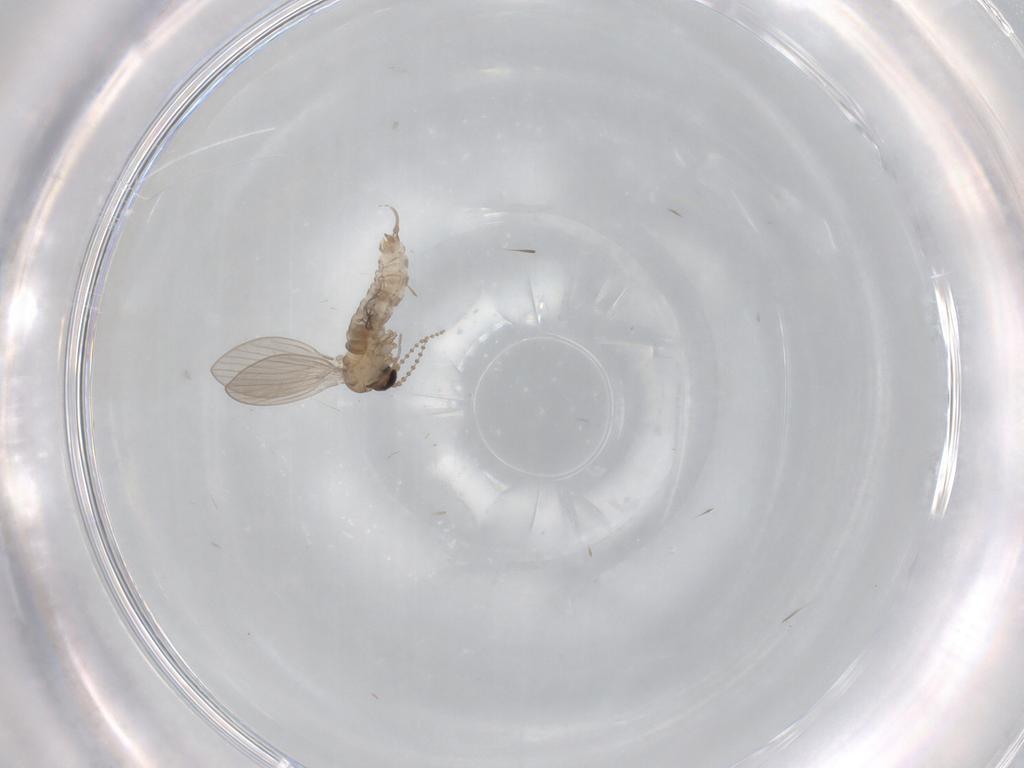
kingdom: Animalia
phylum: Arthropoda
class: Insecta
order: Diptera
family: Psychodidae
